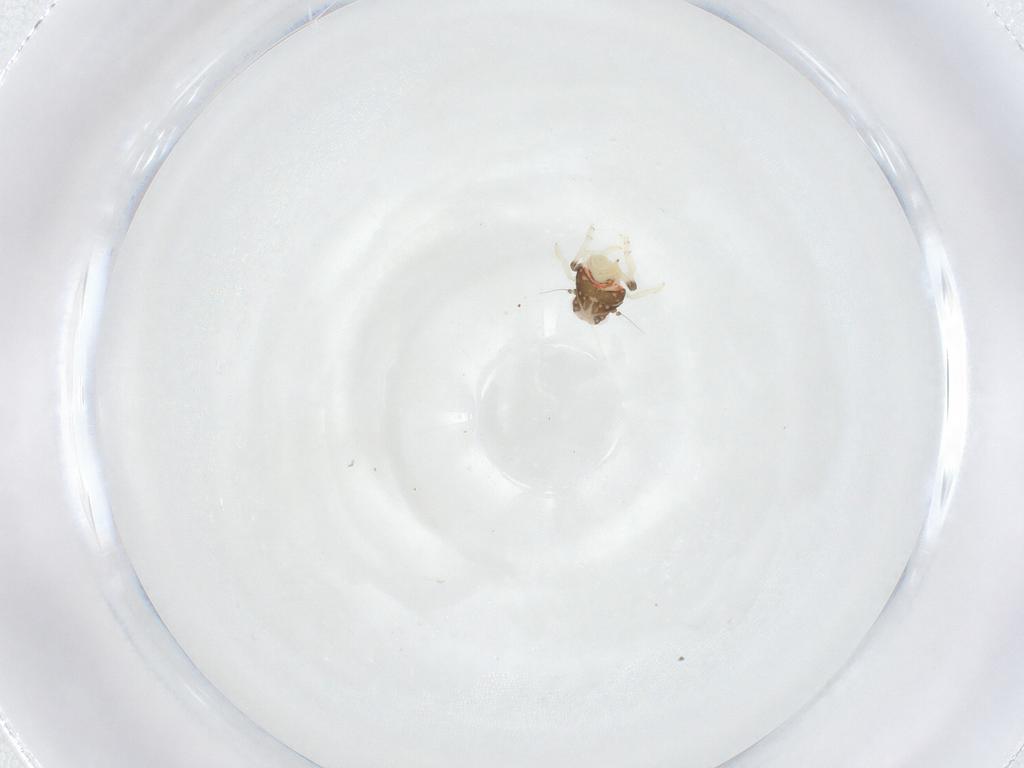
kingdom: Animalia
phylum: Arthropoda
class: Insecta
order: Hemiptera
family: Nogodinidae
